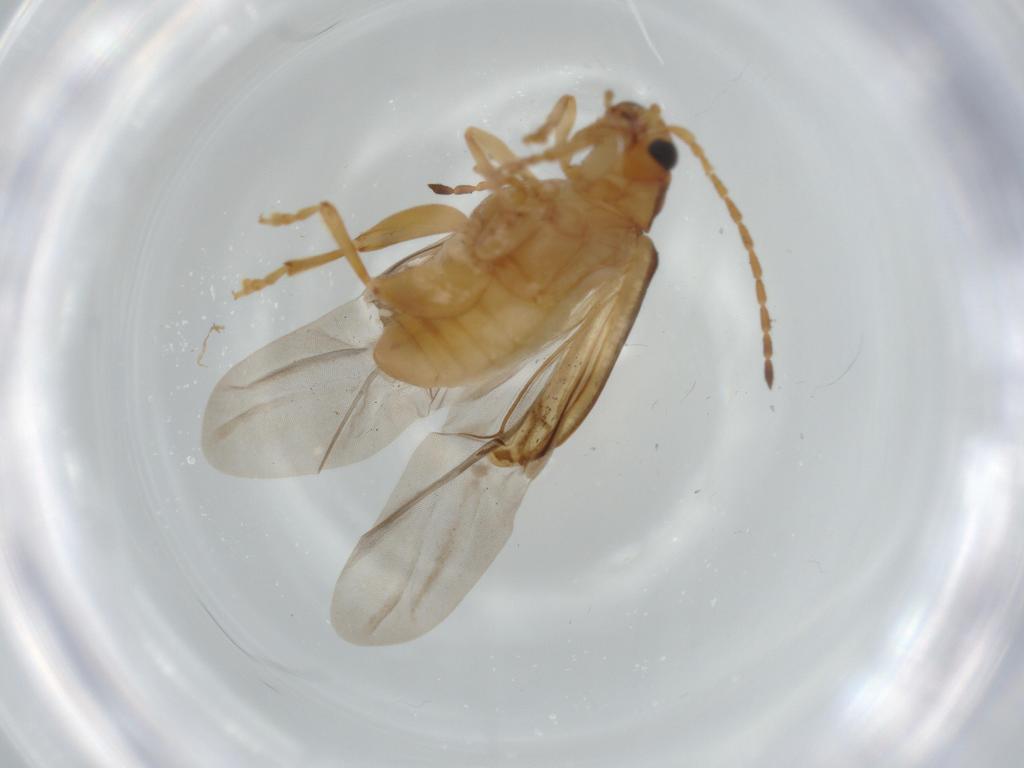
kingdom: Animalia
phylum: Arthropoda
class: Insecta
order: Coleoptera
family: Chrysomelidae
